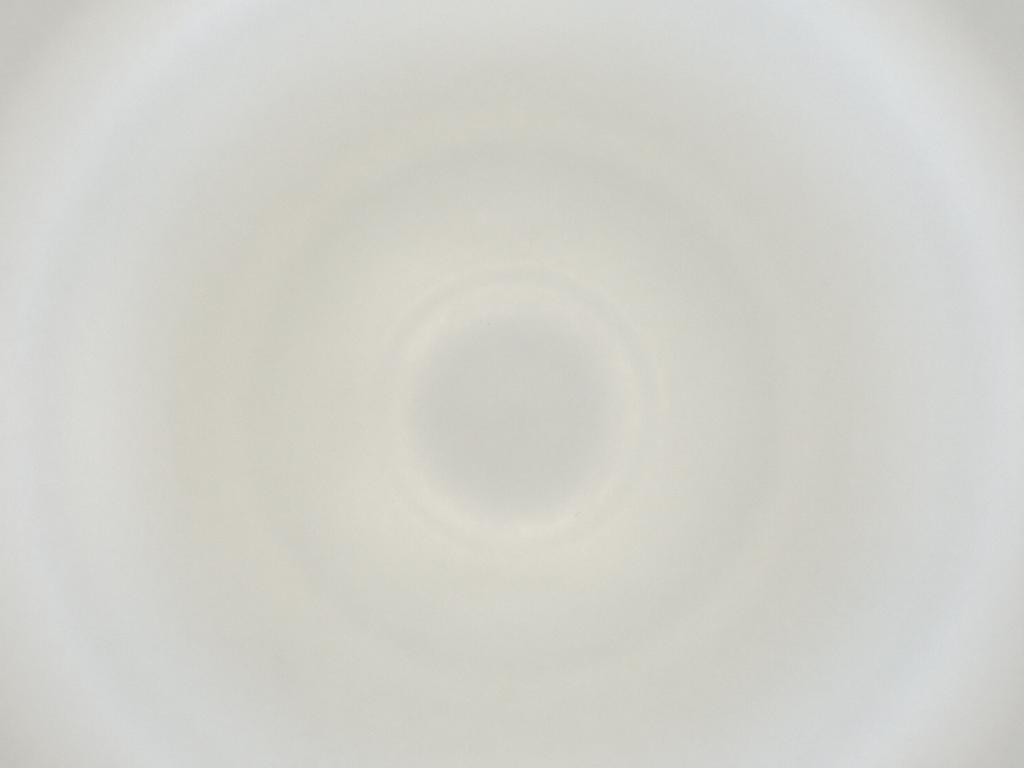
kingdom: Animalia
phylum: Arthropoda
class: Insecta
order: Diptera
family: Cecidomyiidae
